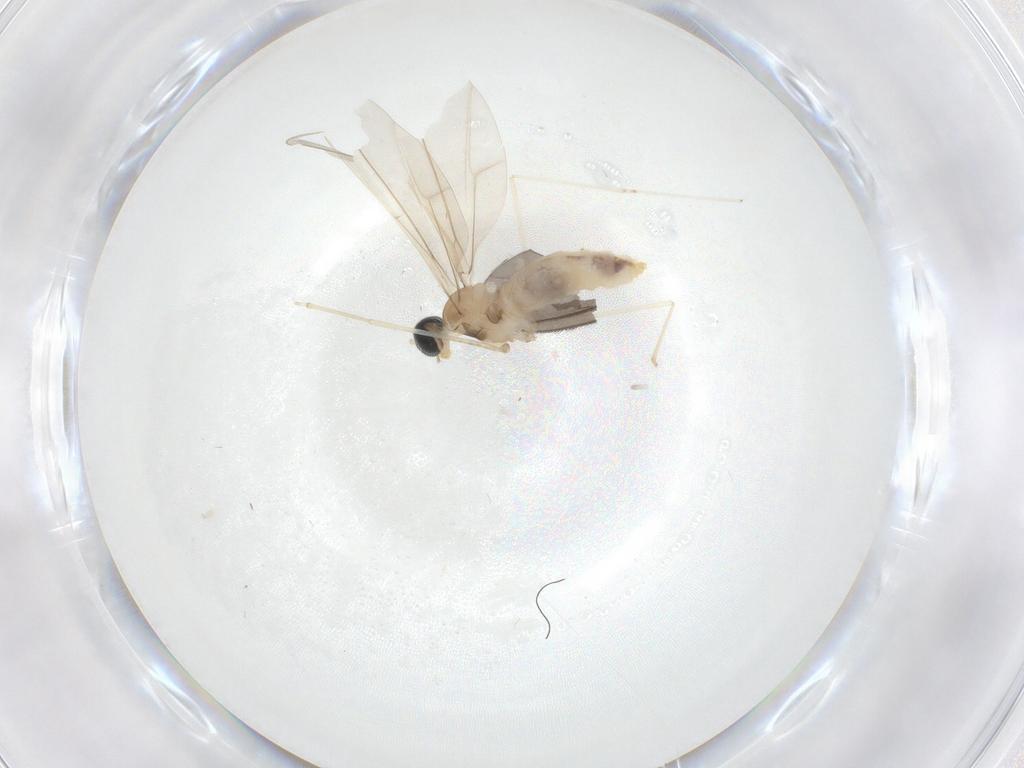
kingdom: Animalia
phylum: Arthropoda
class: Insecta
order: Diptera
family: Cecidomyiidae
